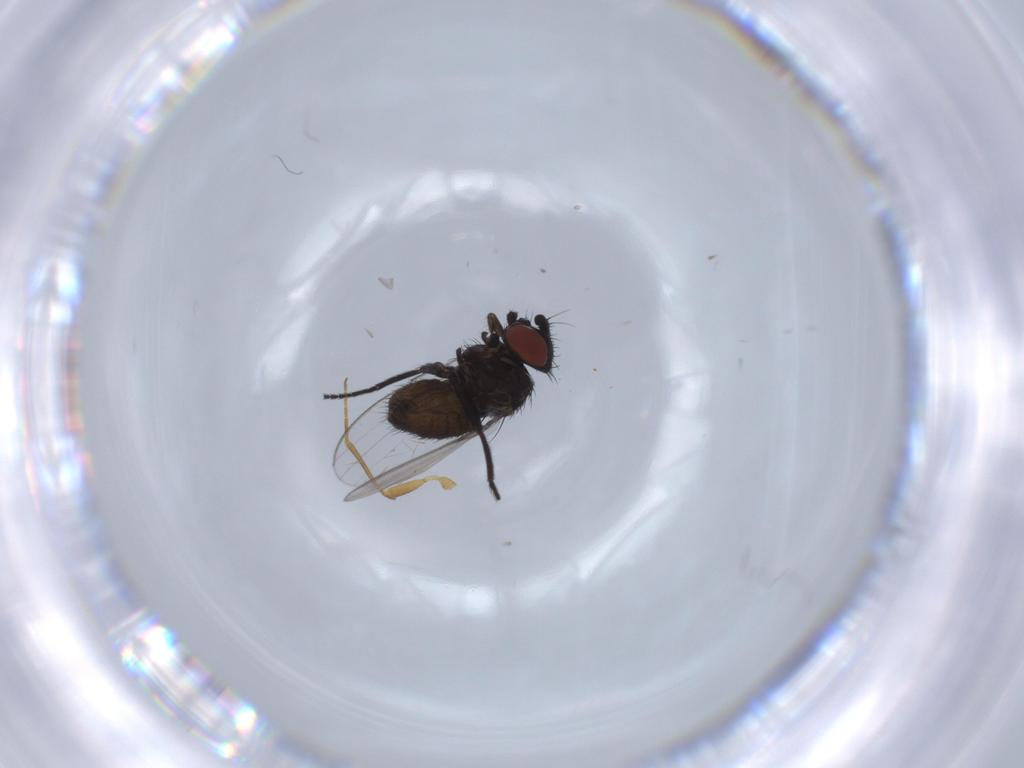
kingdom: Animalia
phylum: Arthropoda
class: Insecta
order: Diptera
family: Milichiidae
